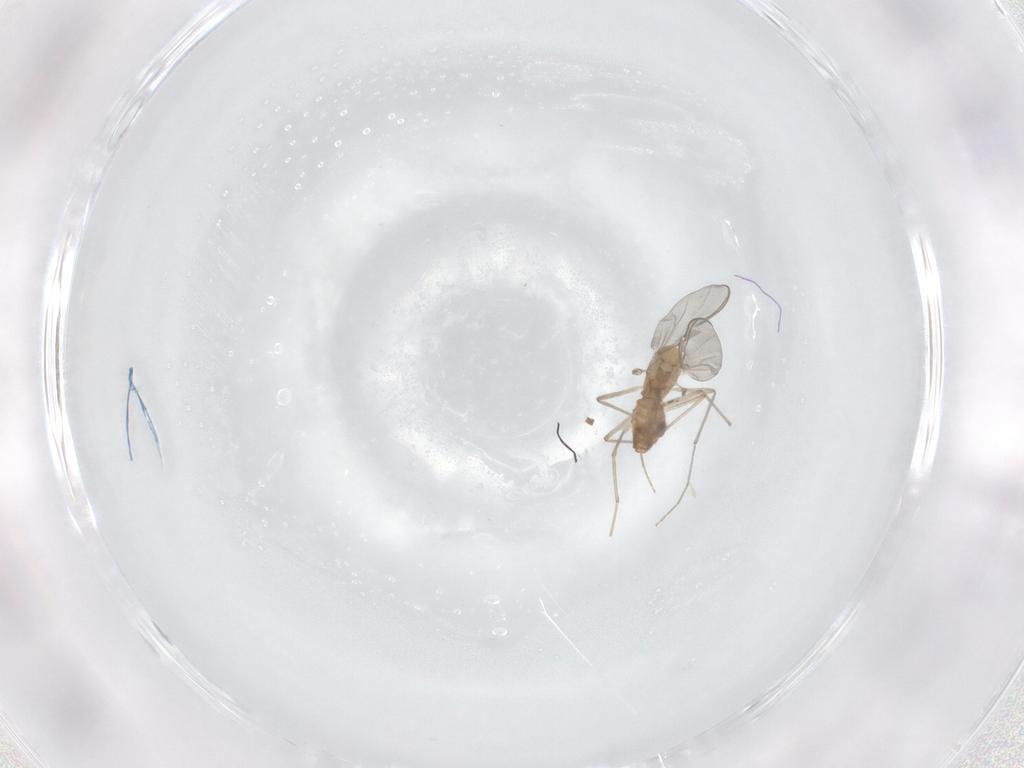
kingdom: Animalia
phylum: Arthropoda
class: Insecta
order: Diptera
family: Chironomidae
